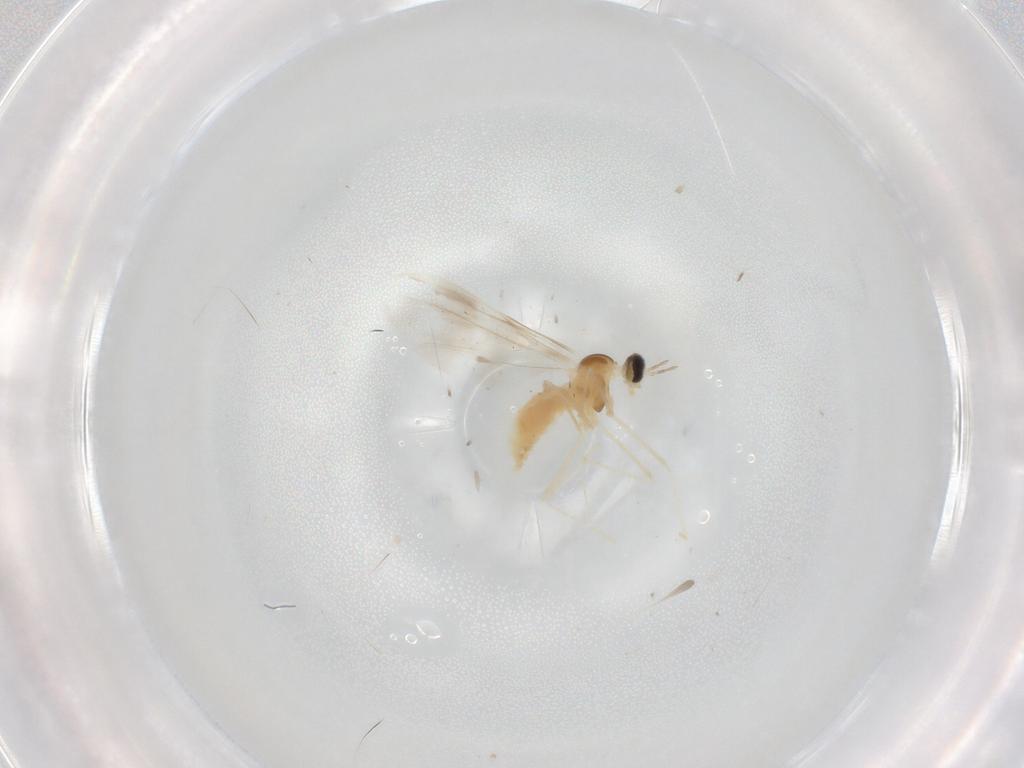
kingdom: Animalia
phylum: Arthropoda
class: Insecta
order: Diptera
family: Cecidomyiidae
